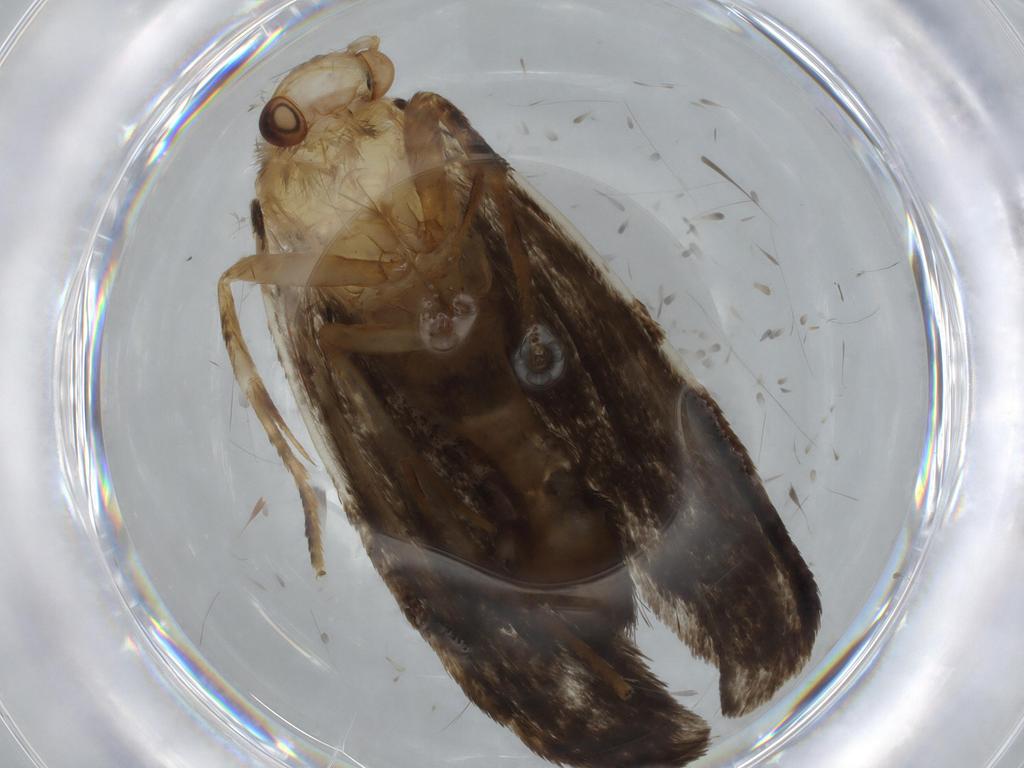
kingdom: Animalia
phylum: Arthropoda
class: Insecta
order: Lepidoptera
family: Tineidae
